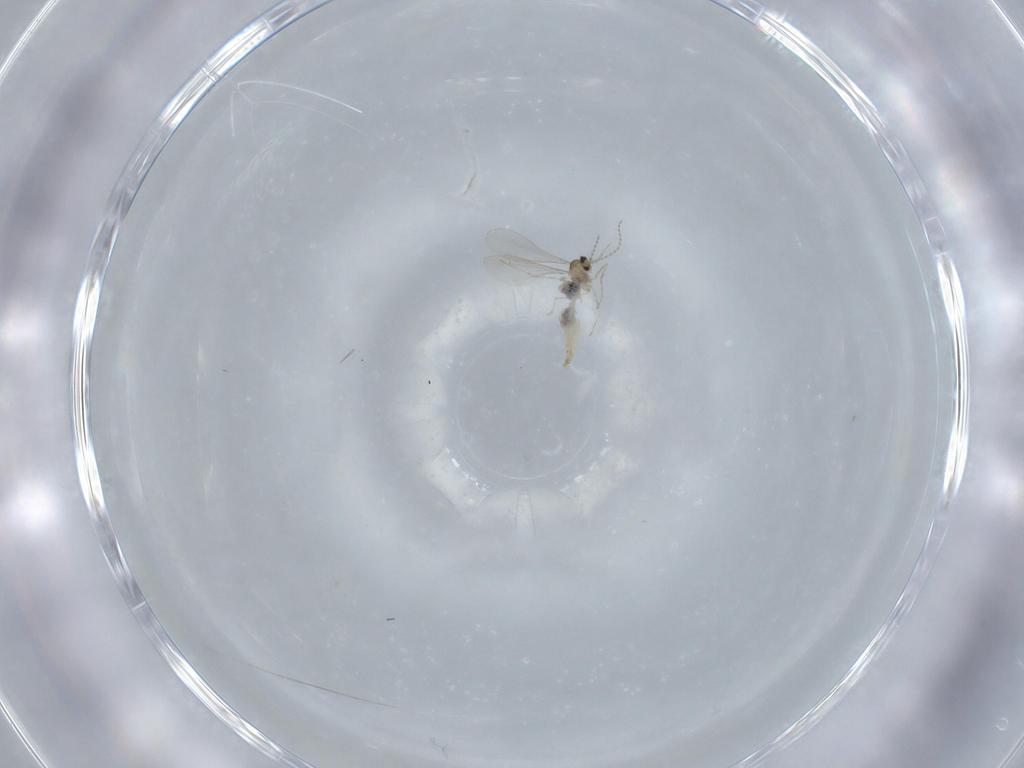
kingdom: Animalia
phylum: Arthropoda
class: Insecta
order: Diptera
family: Cecidomyiidae
